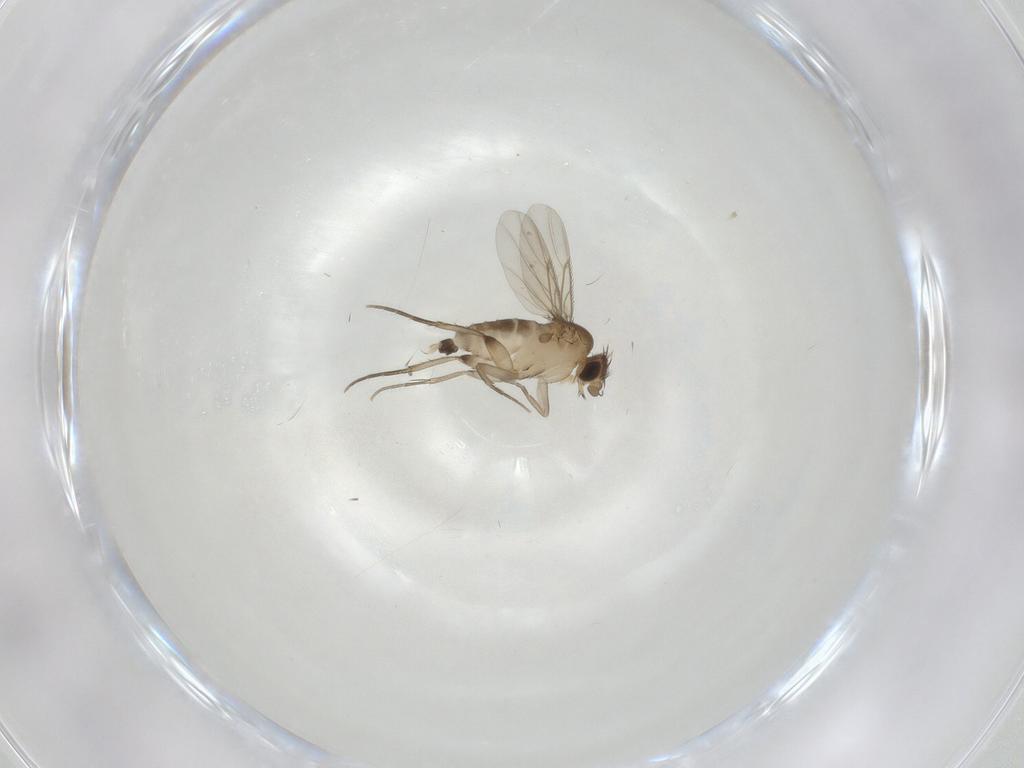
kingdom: Animalia
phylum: Arthropoda
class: Insecta
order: Diptera
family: Phoridae
